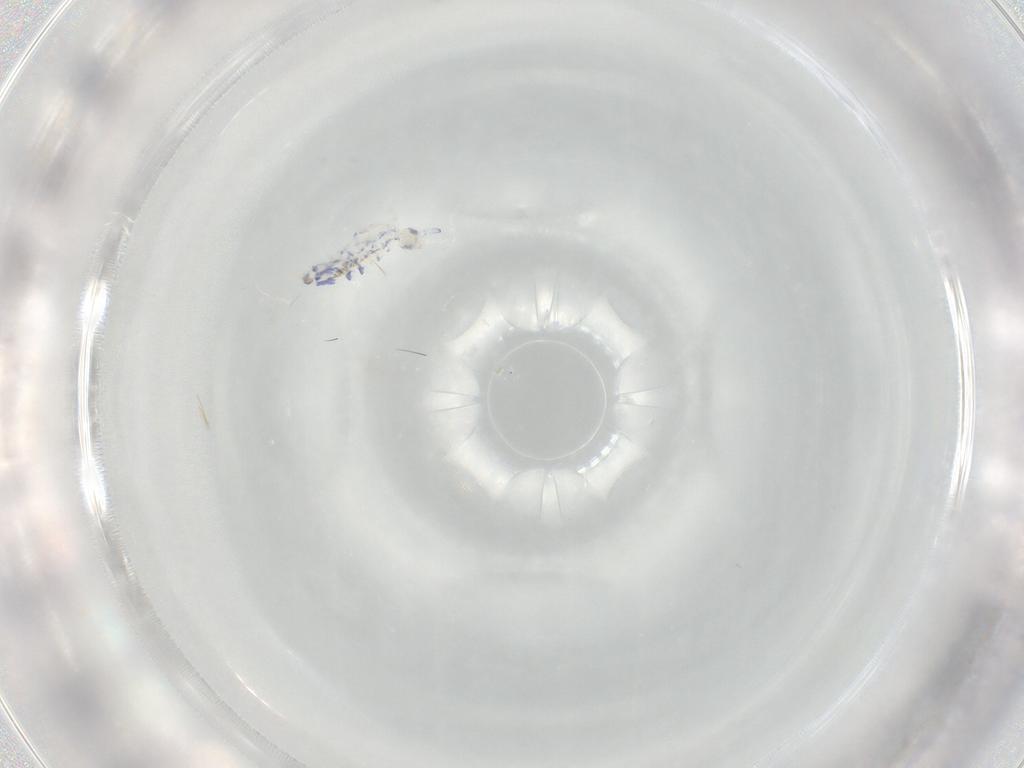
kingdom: Animalia
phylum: Arthropoda
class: Collembola
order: Entomobryomorpha
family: Entomobryidae
